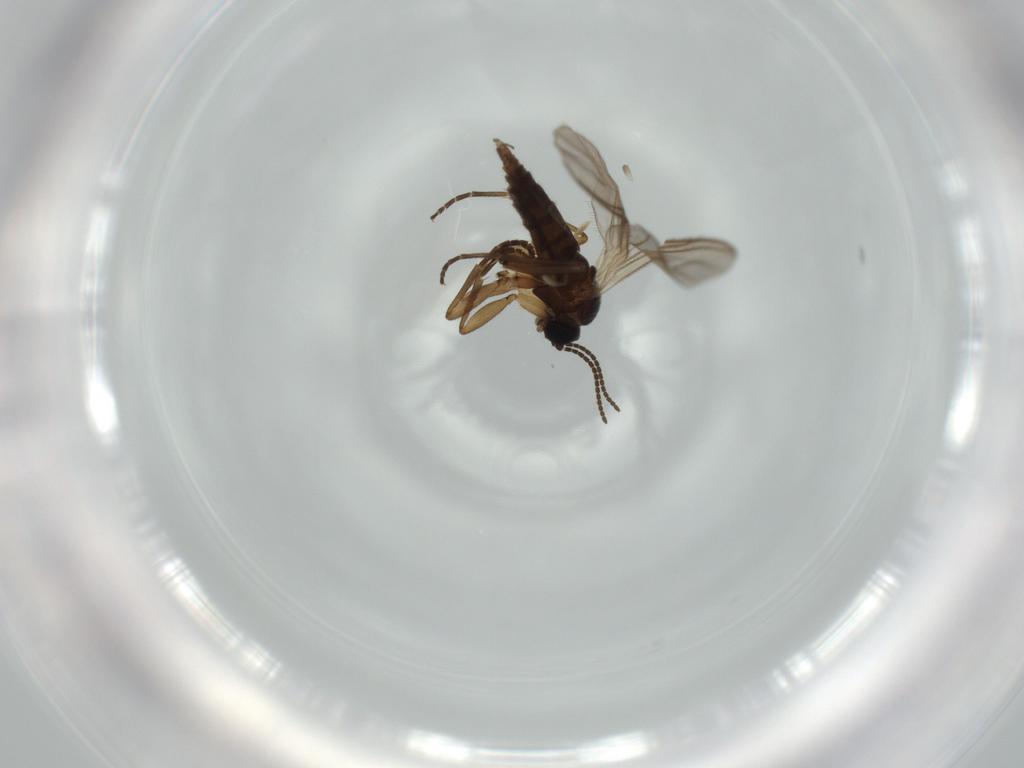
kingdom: Animalia
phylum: Arthropoda
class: Insecta
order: Diptera
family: Sciaridae
